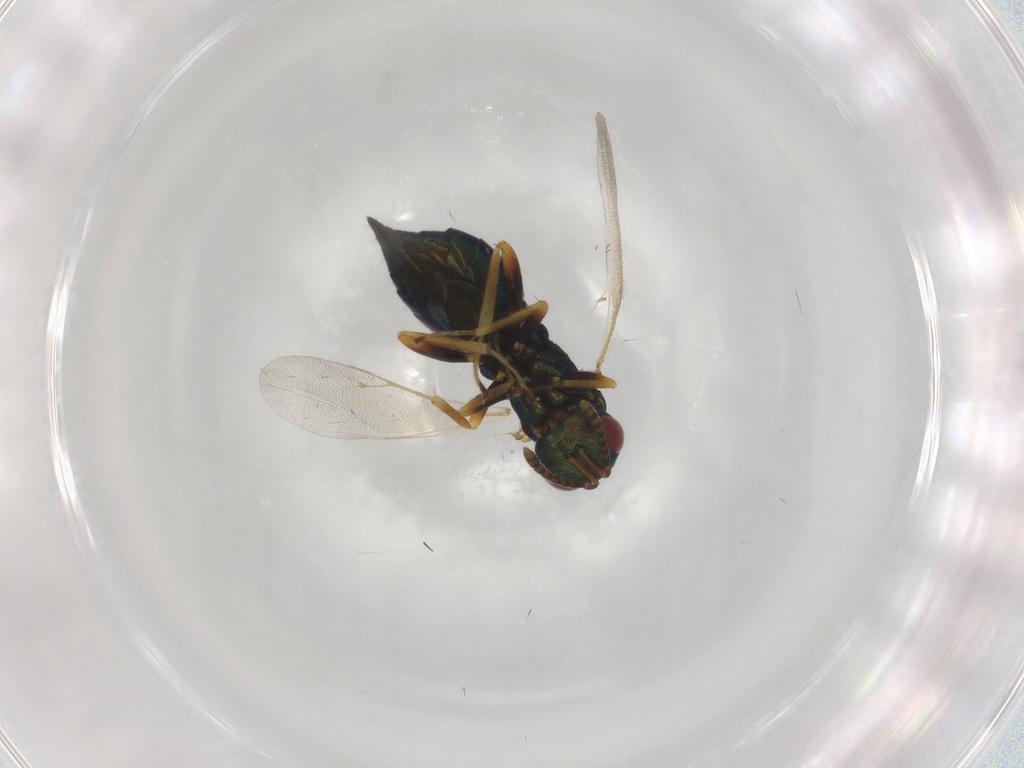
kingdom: Animalia
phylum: Arthropoda
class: Insecta
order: Hymenoptera
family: Pteromalidae
